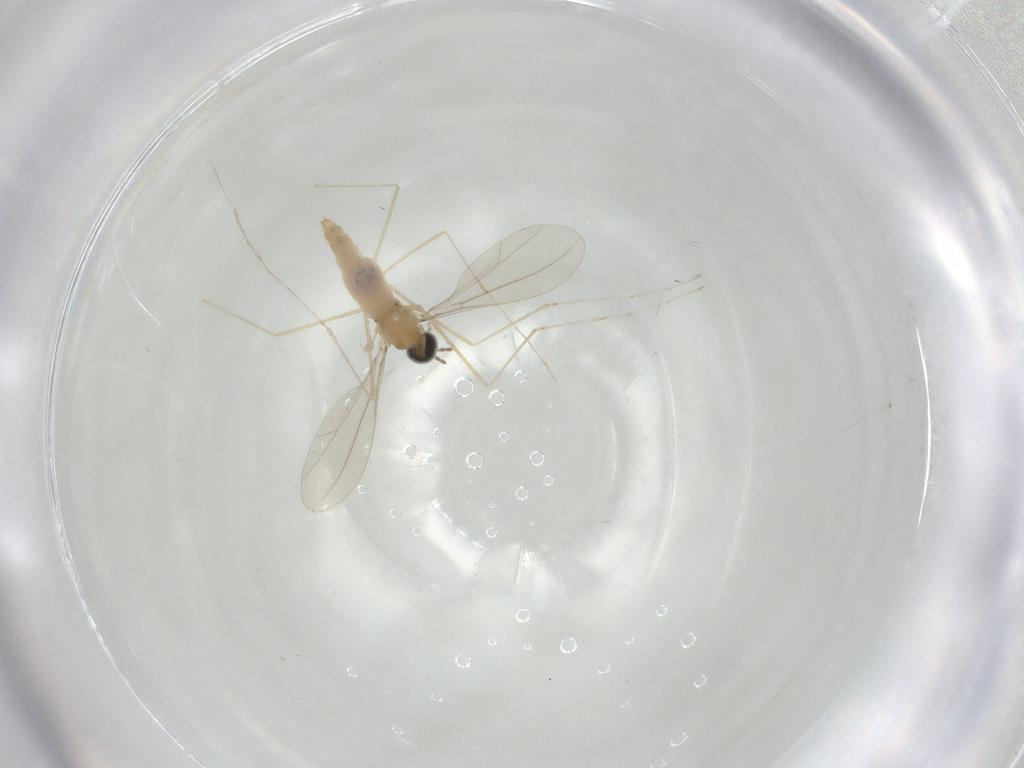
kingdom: Animalia
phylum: Arthropoda
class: Insecta
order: Diptera
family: Cecidomyiidae
